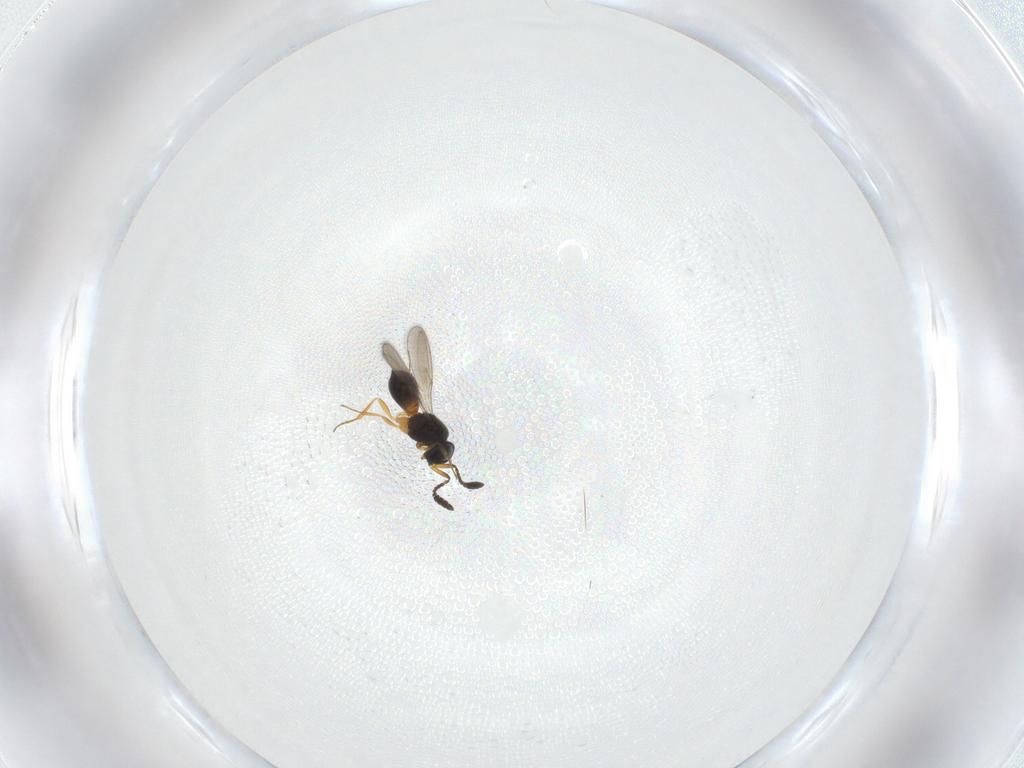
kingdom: Animalia
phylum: Arthropoda
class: Insecta
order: Hymenoptera
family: Scelionidae
